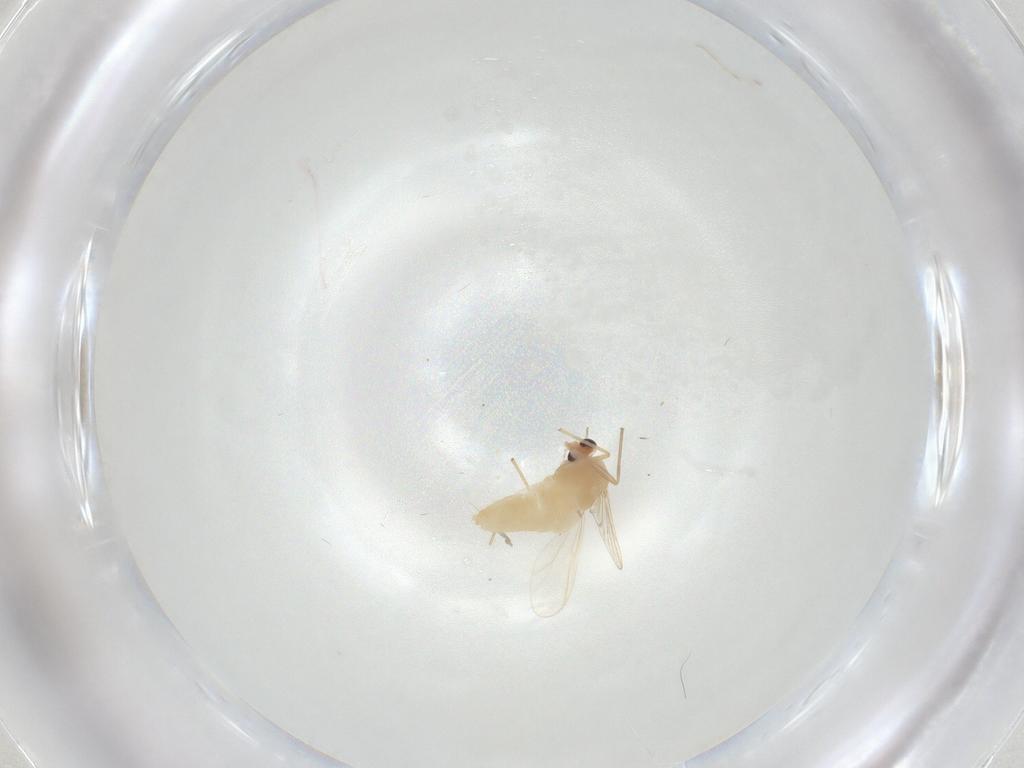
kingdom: Animalia
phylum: Arthropoda
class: Insecta
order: Diptera
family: Chironomidae
